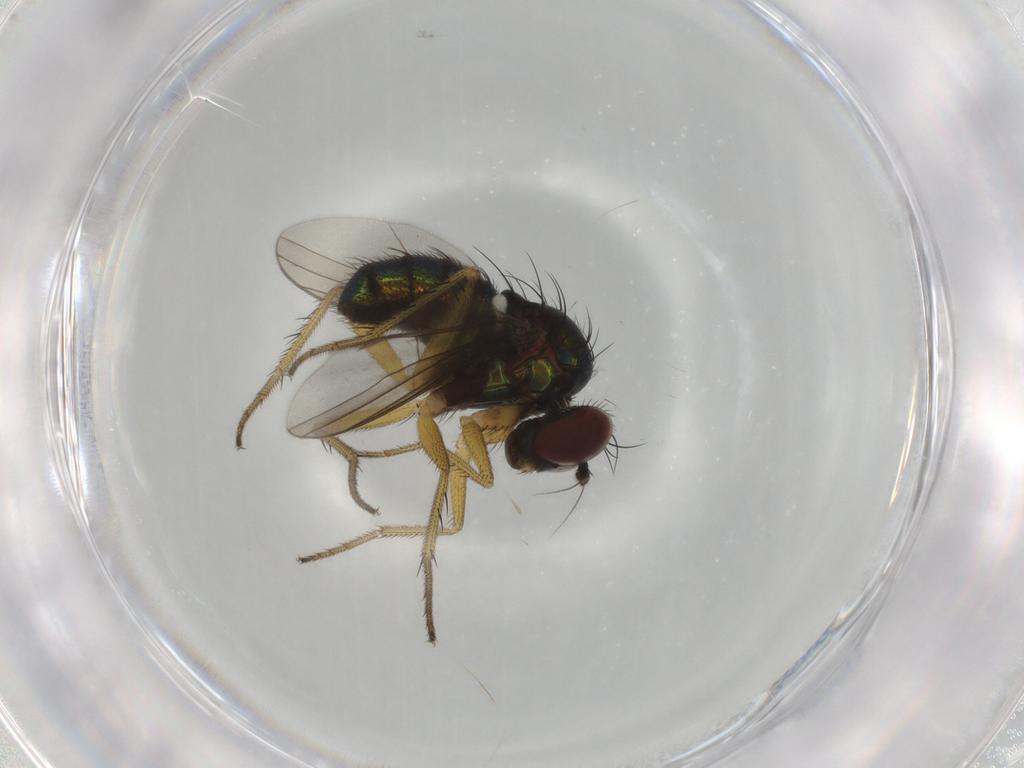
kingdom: Animalia
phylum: Arthropoda
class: Insecta
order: Diptera
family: Dolichopodidae
